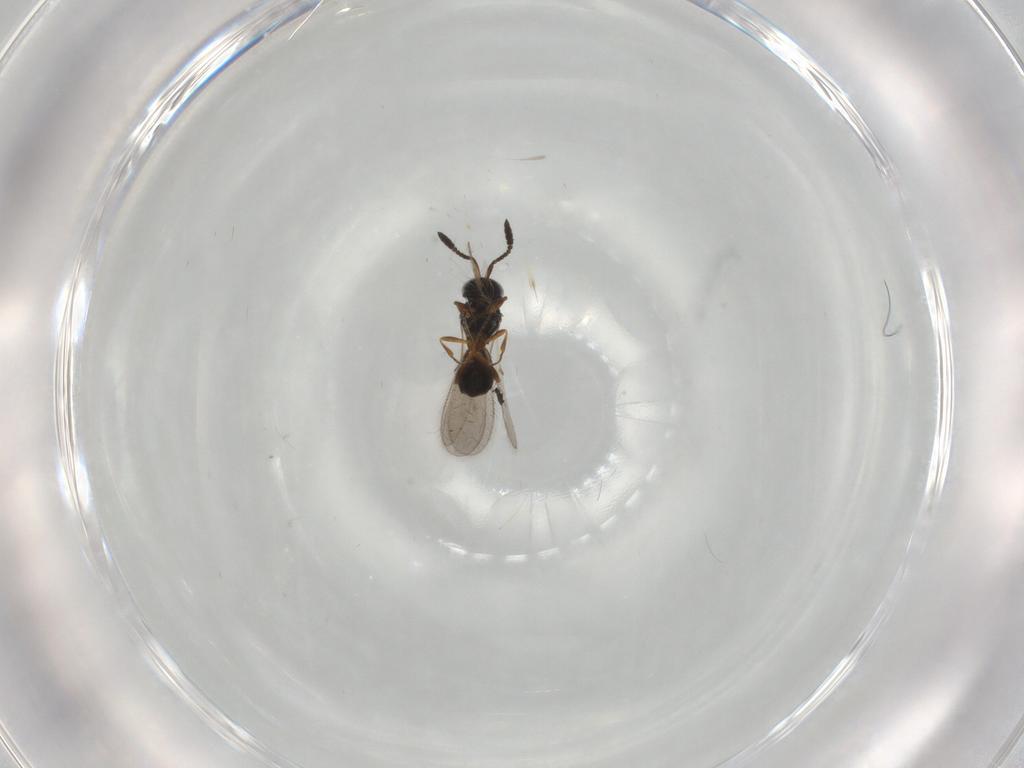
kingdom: Animalia
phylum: Arthropoda
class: Insecta
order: Hymenoptera
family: Scelionidae
